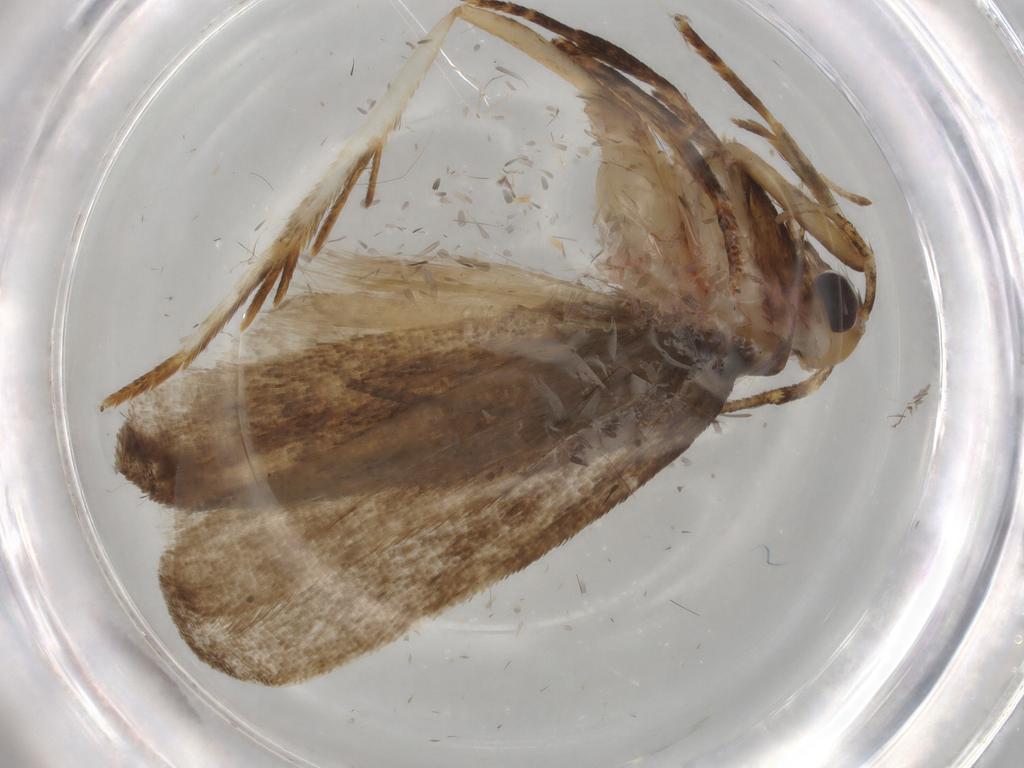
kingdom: Animalia
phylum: Arthropoda
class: Insecta
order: Lepidoptera
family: Autostichidae
